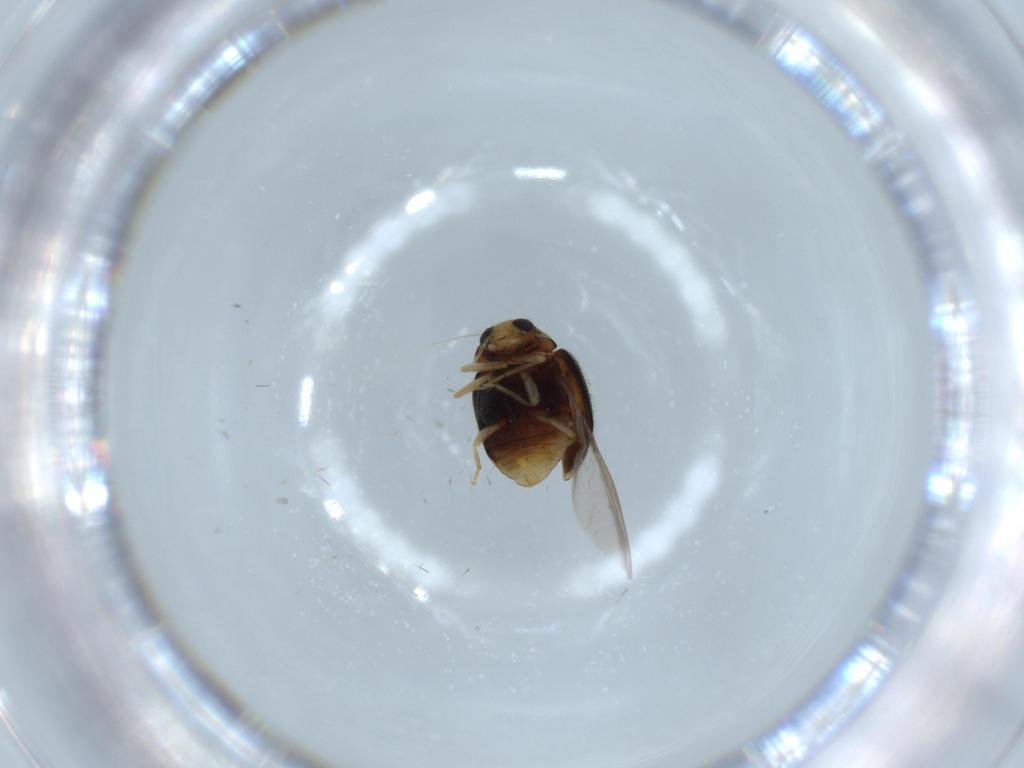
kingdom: Animalia
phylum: Arthropoda
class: Insecta
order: Coleoptera
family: Coccinellidae
